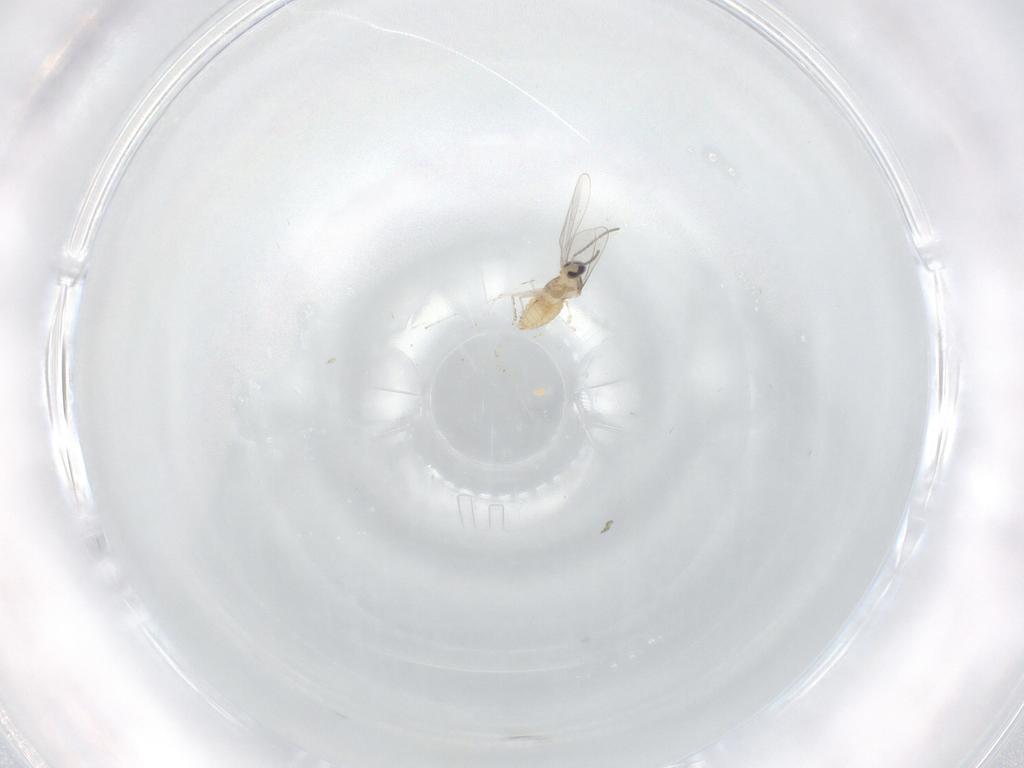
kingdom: Animalia
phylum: Arthropoda
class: Insecta
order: Diptera
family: Cecidomyiidae
